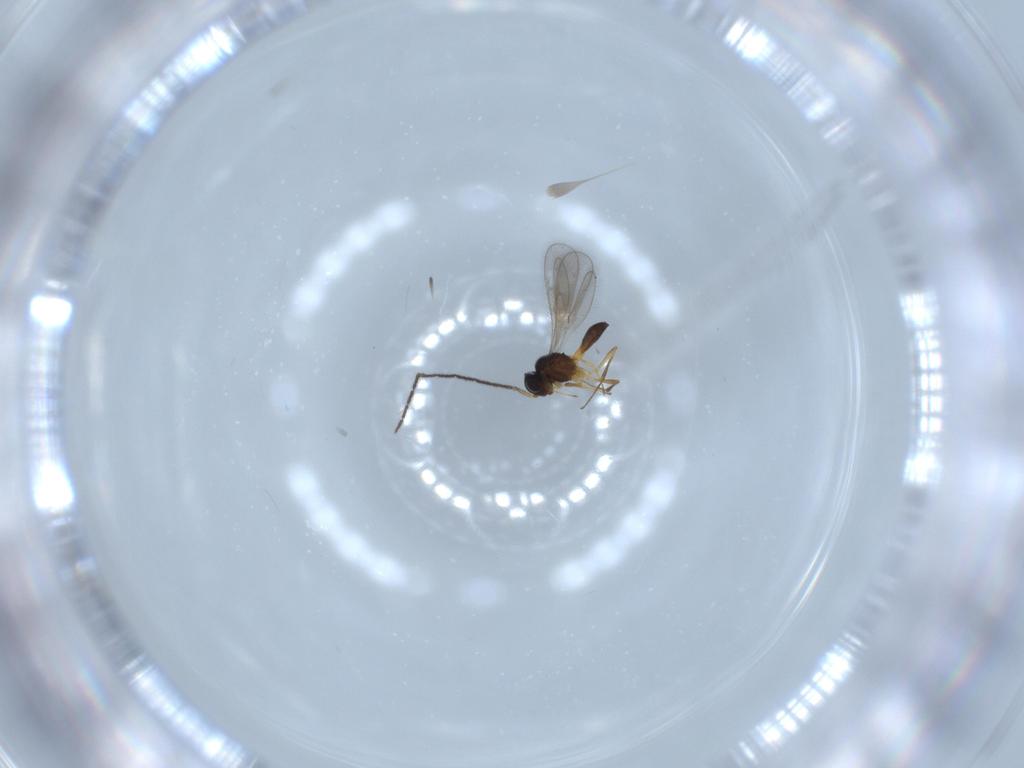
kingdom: Animalia
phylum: Arthropoda
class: Insecta
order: Hymenoptera
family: Scelionidae
